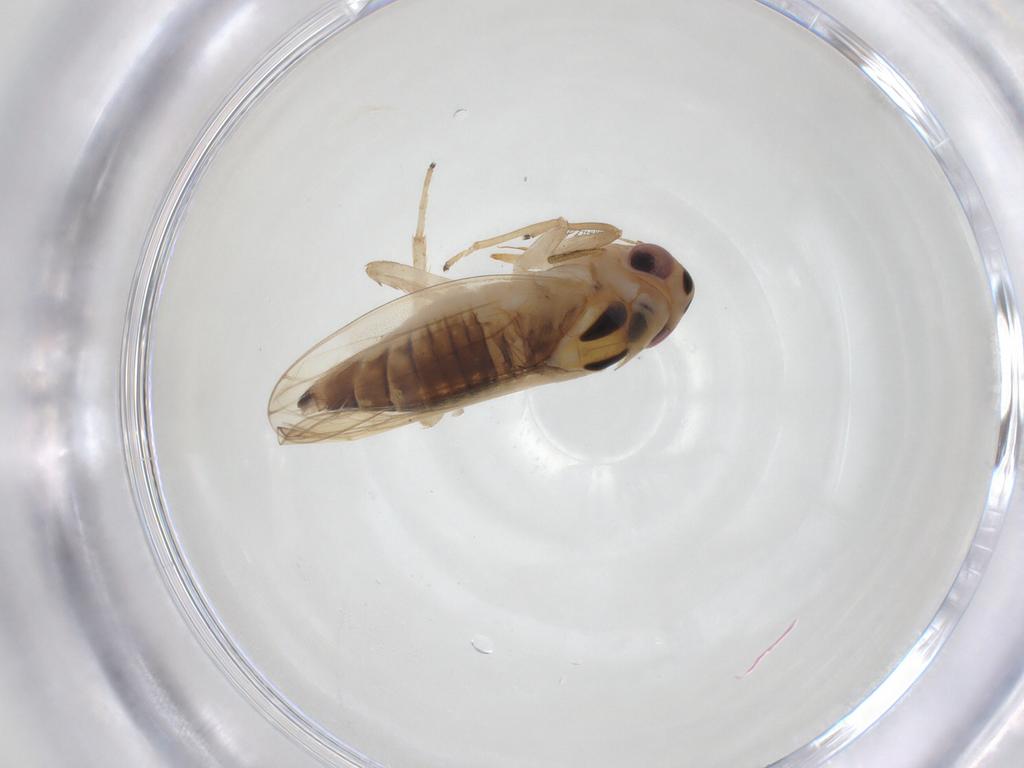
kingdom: Animalia
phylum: Arthropoda
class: Insecta
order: Hemiptera
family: Cicadellidae
